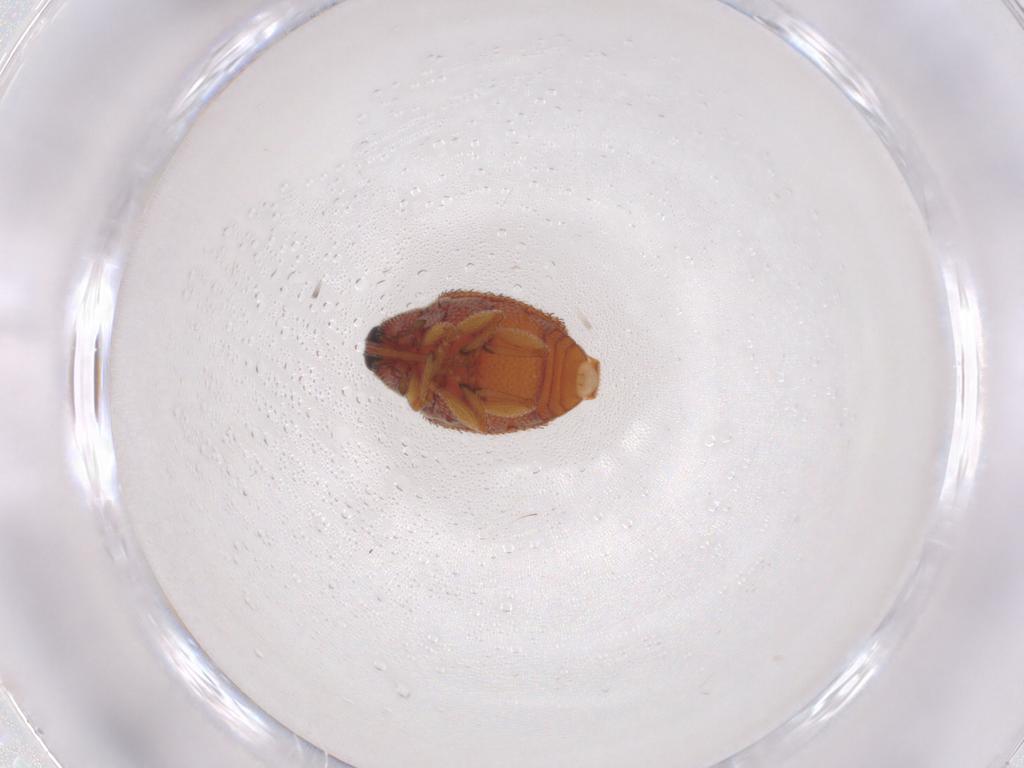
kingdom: Animalia
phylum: Arthropoda
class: Insecta
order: Coleoptera
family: Curculionidae
